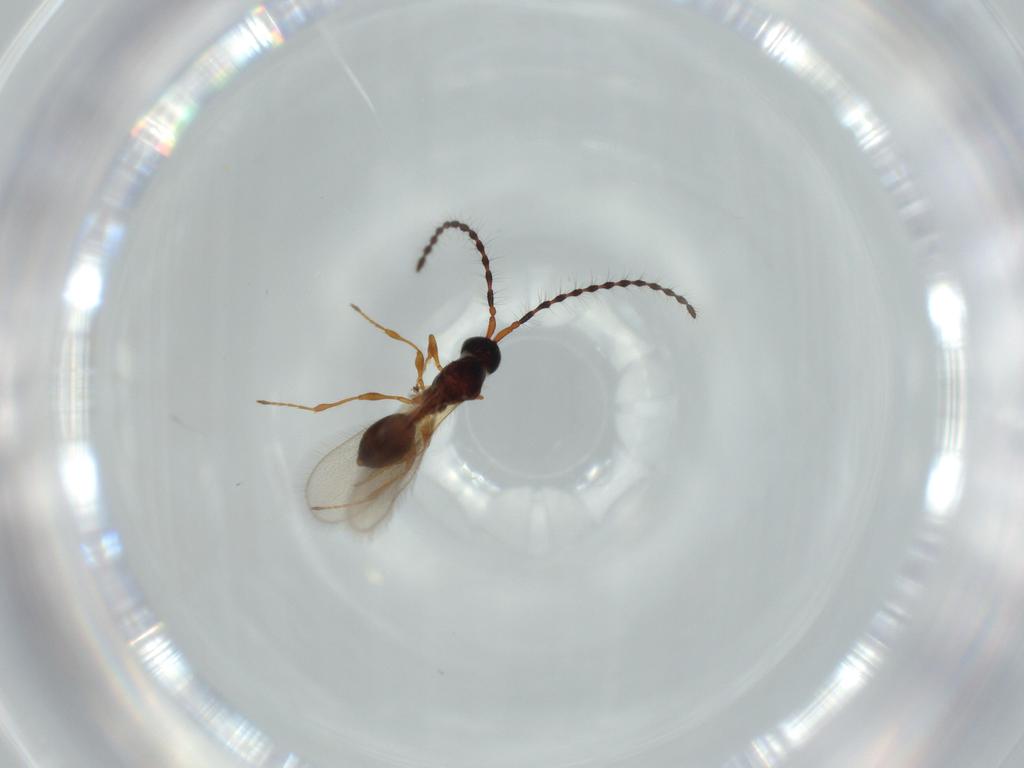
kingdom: Animalia
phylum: Arthropoda
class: Insecta
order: Hymenoptera
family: Diapriidae
